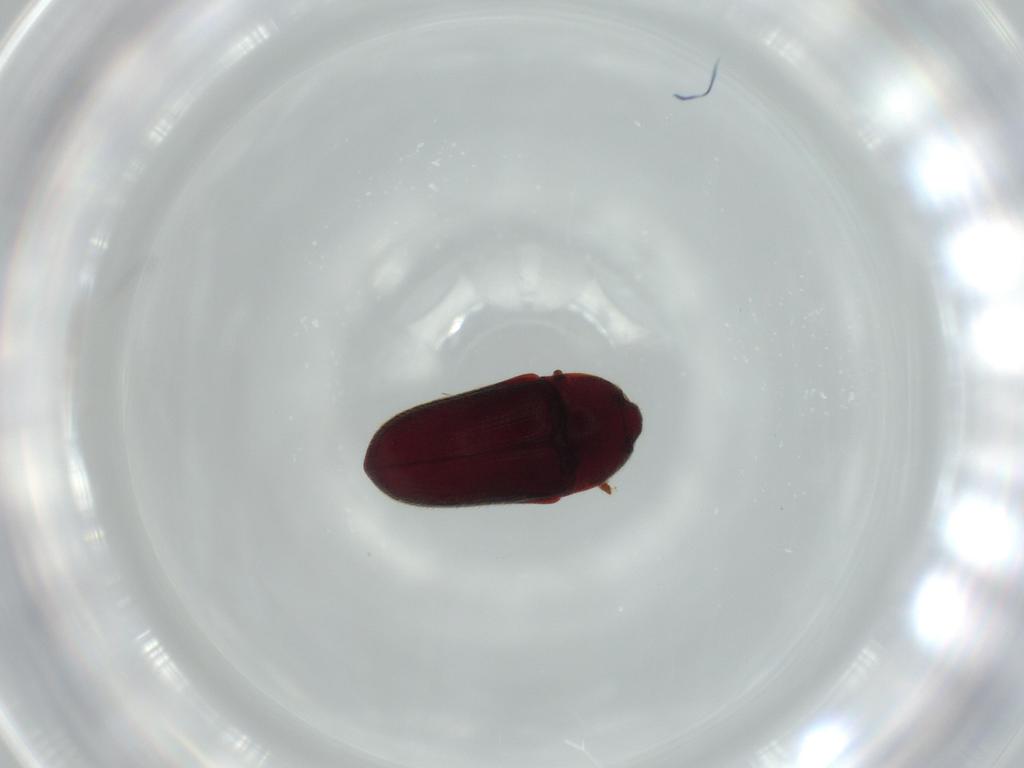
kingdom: Animalia
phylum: Arthropoda
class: Insecta
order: Coleoptera
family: Throscidae
